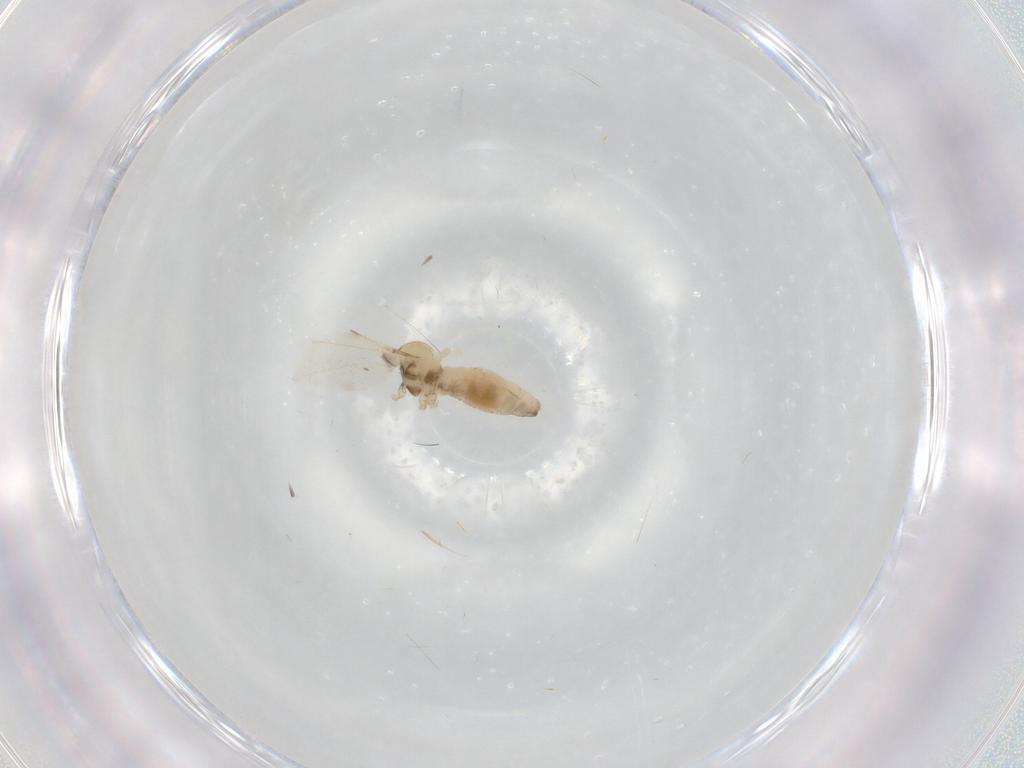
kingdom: Animalia
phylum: Arthropoda
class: Insecta
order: Diptera
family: Cecidomyiidae
